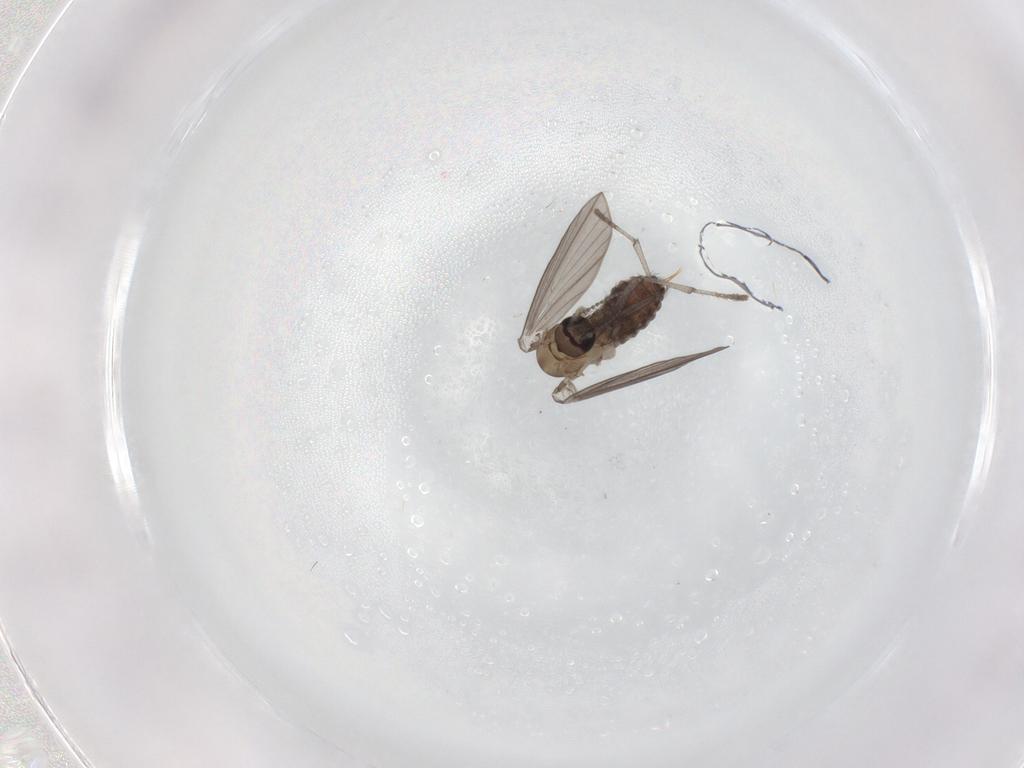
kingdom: Animalia
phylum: Arthropoda
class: Insecta
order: Diptera
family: Psychodidae
